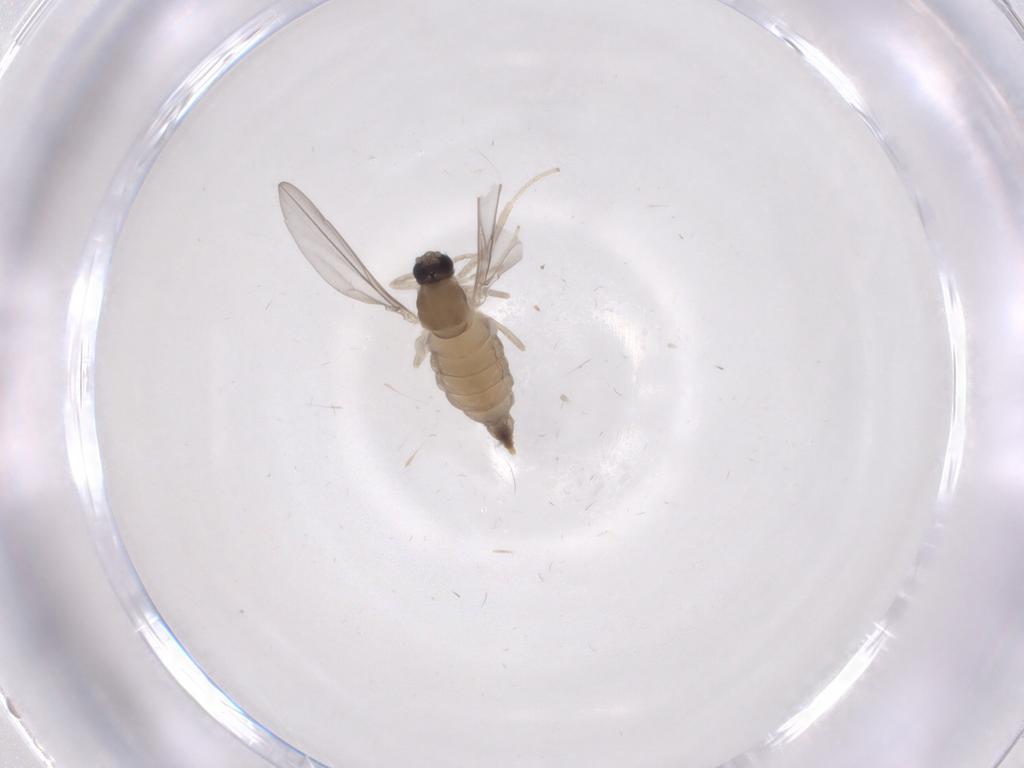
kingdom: Animalia
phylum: Arthropoda
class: Insecta
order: Diptera
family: Cecidomyiidae
